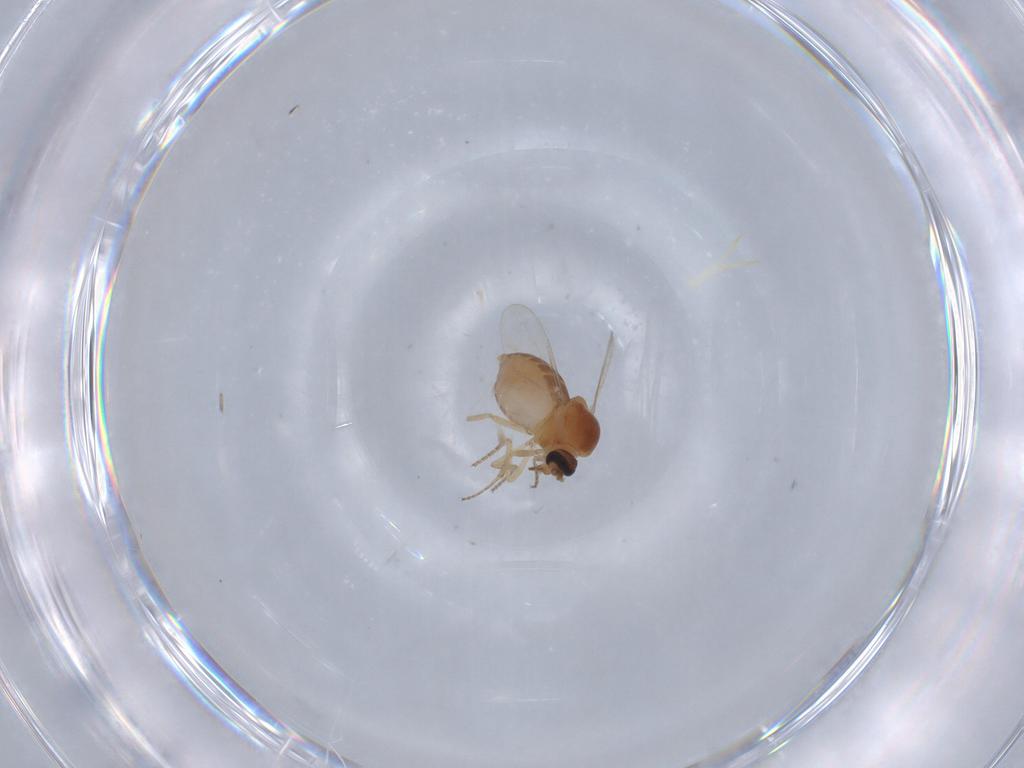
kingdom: Animalia
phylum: Arthropoda
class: Insecta
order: Diptera
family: Ceratopogonidae
